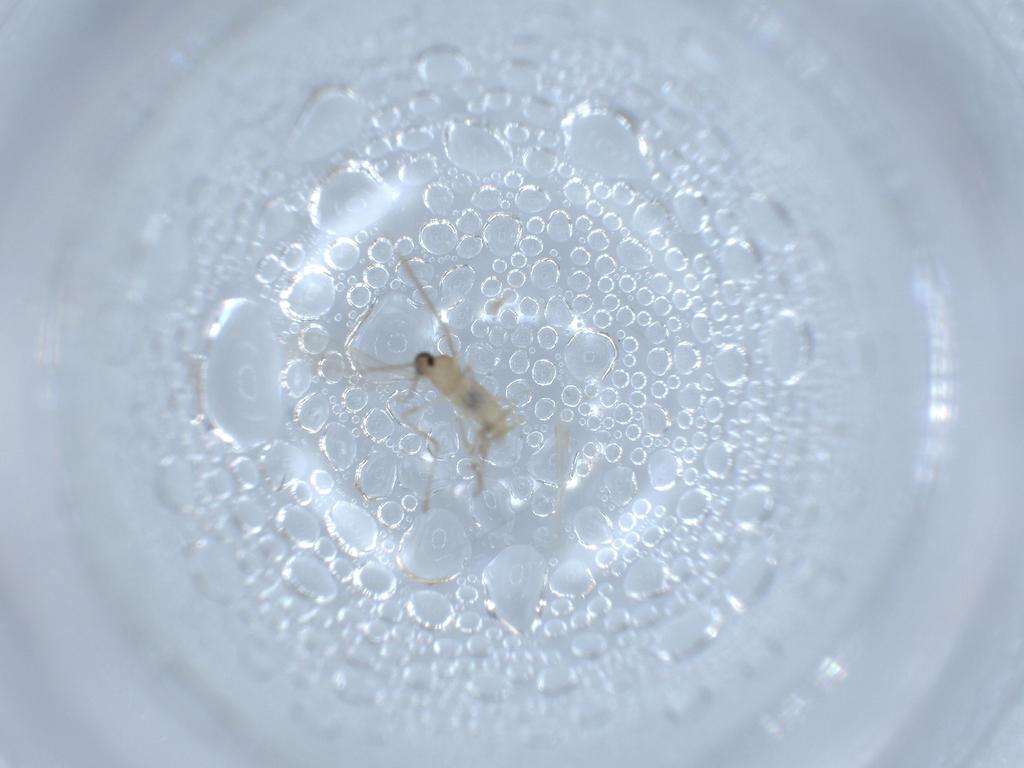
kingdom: Animalia
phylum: Arthropoda
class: Insecta
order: Diptera
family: Cecidomyiidae
